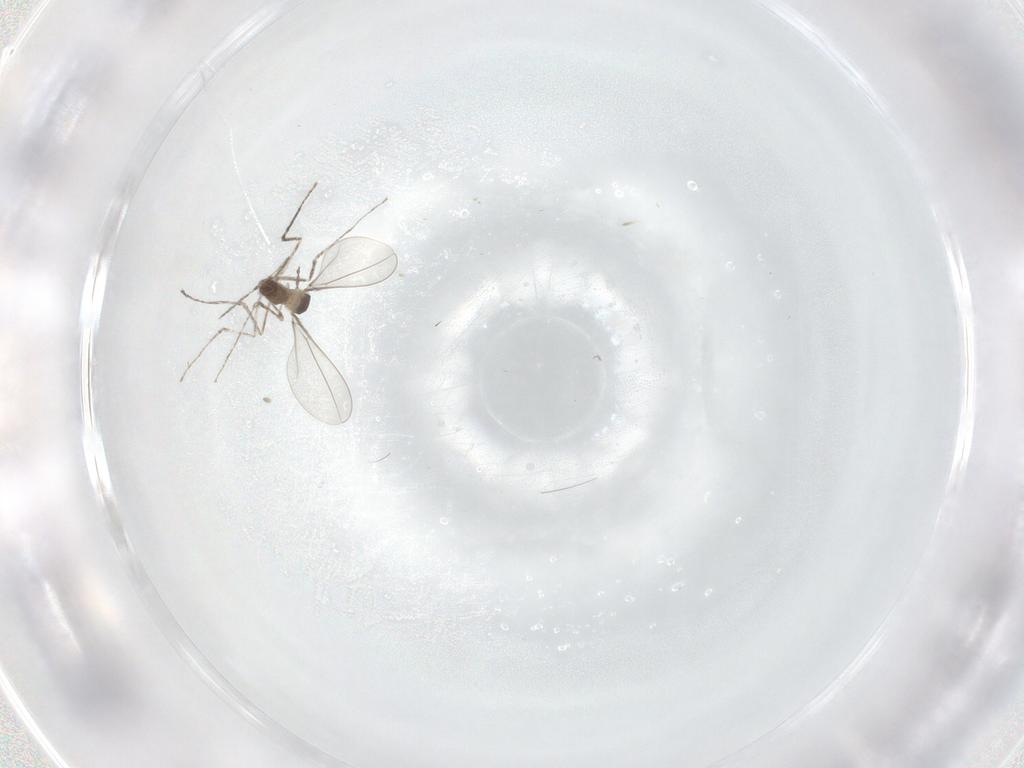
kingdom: Animalia
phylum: Arthropoda
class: Insecta
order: Diptera
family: Cecidomyiidae
